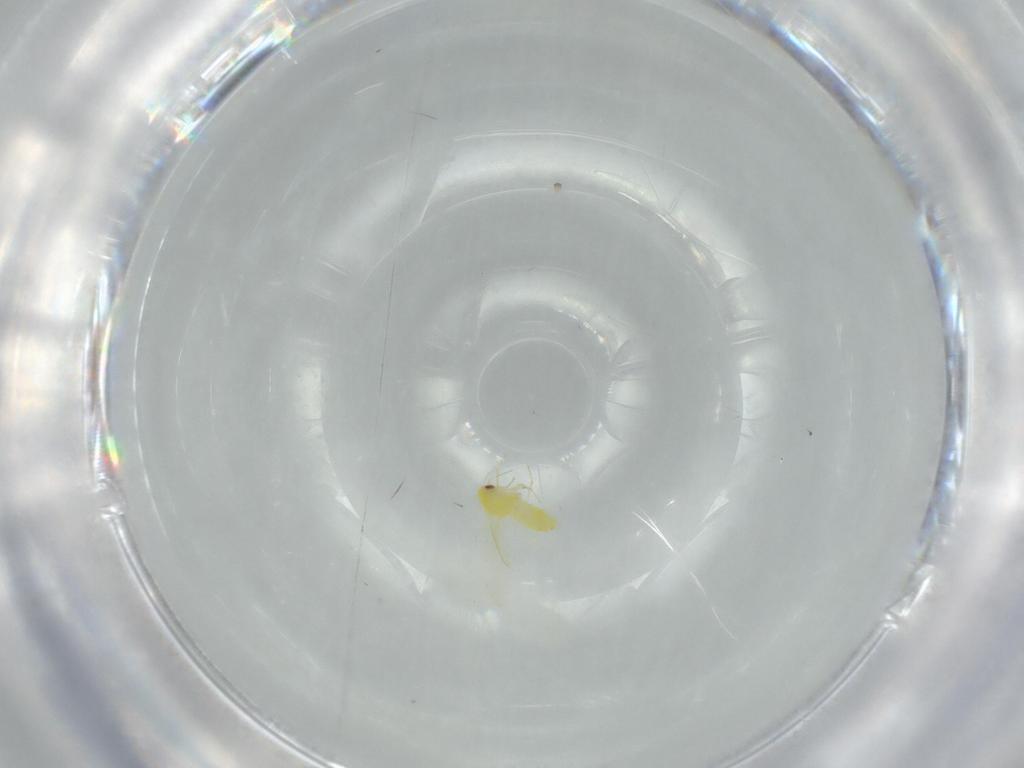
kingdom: Animalia
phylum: Arthropoda
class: Insecta
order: Hemiptera
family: Aleyrodidae
